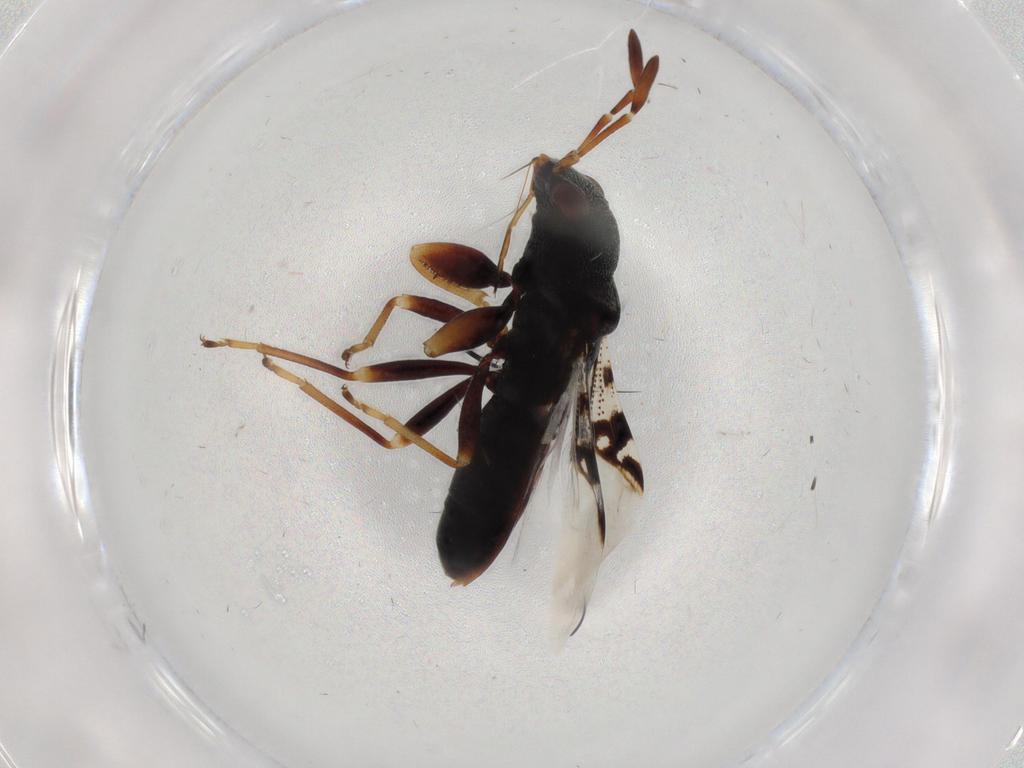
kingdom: Animalia
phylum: Arthropoda
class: Insecta
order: Hemiptera
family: Rhyparochromidae
